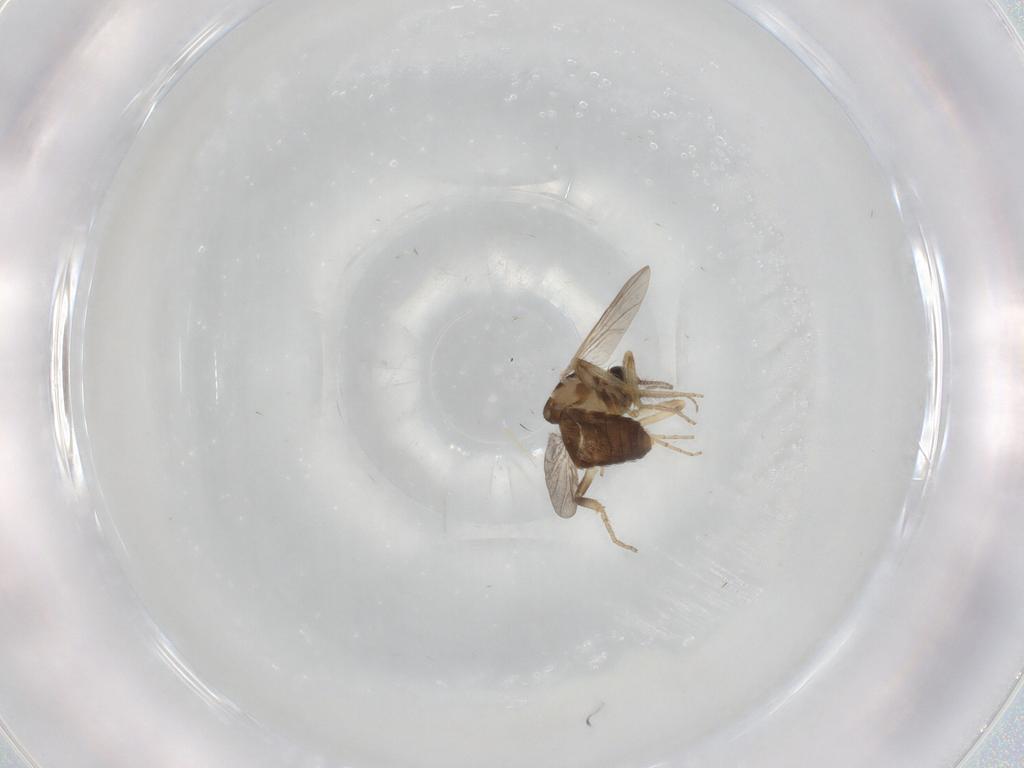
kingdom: Animalia
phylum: Arthropoda
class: Insecta
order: Diptera
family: Ceratopogonidae
